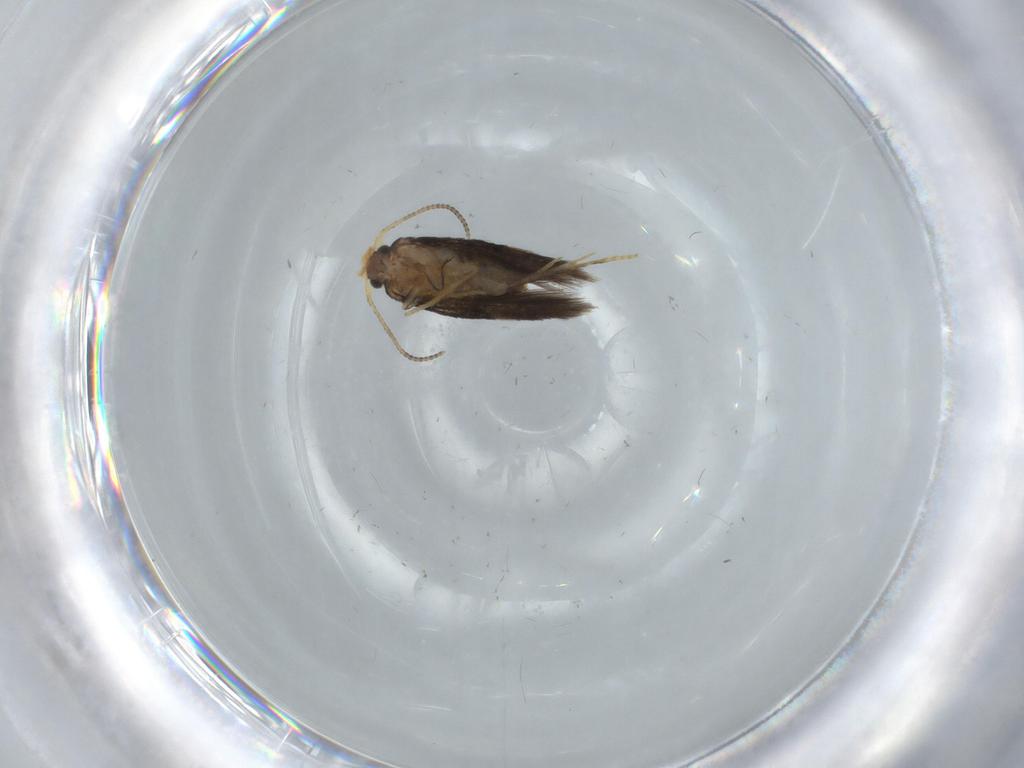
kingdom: Animalia
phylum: Arthropoda
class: Insecta
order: Lepidoptera
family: Nepticulidae
